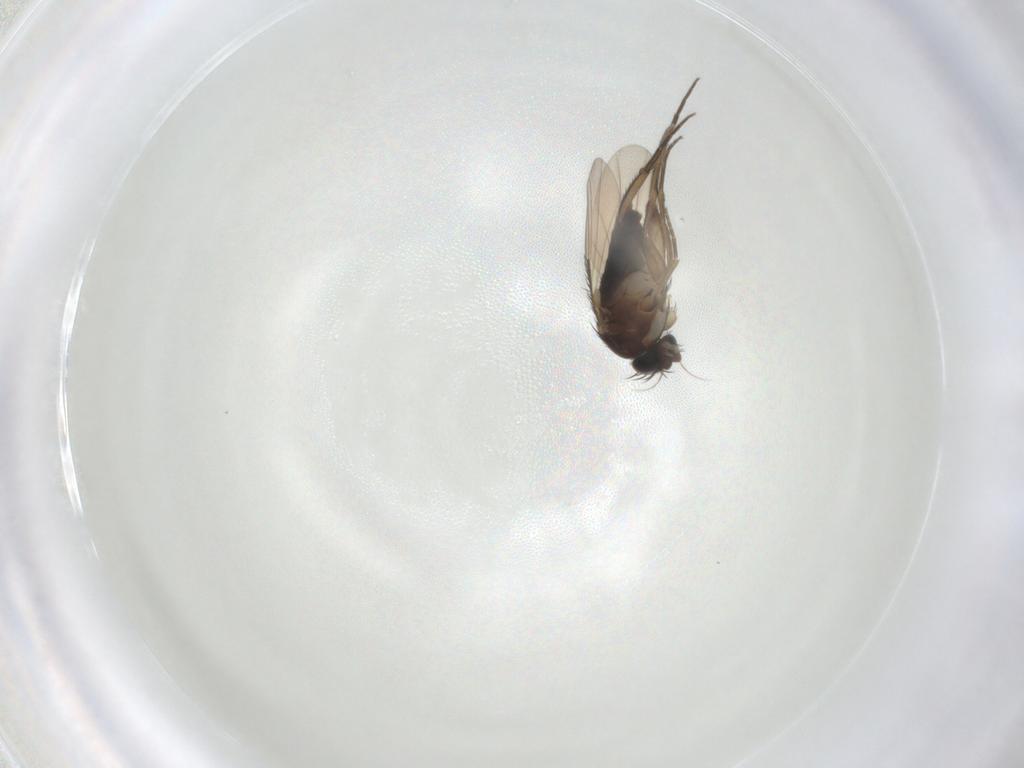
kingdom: Animalia
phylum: Arthropoda
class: Insecta
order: Diptera
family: Phoridae
